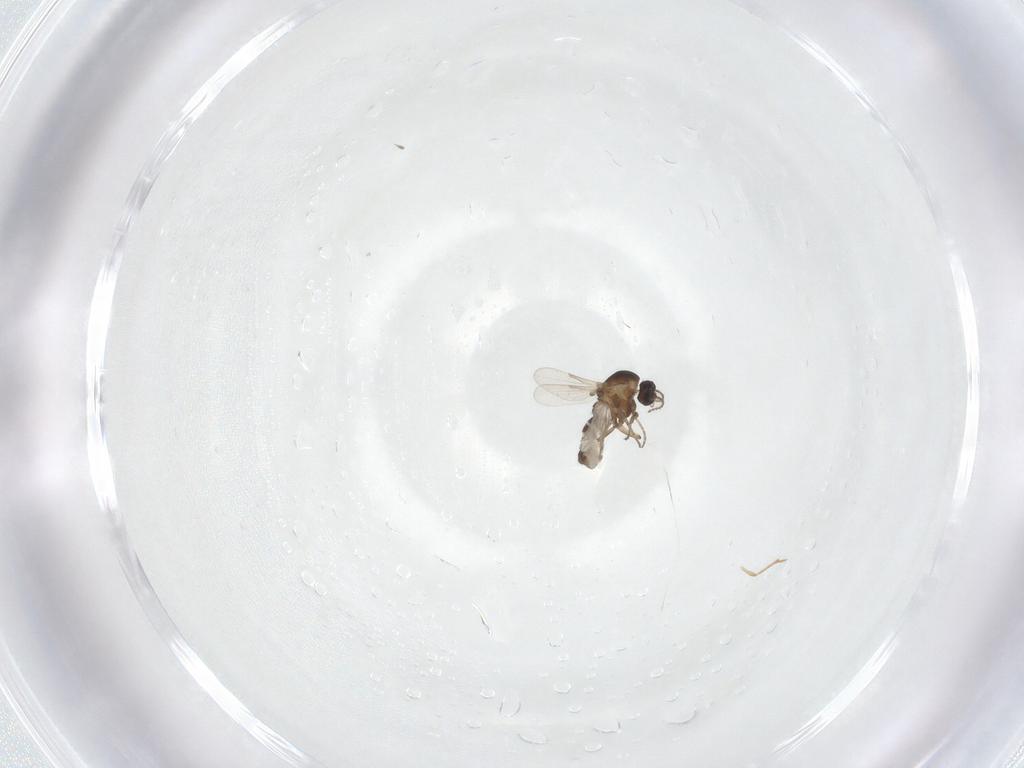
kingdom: Animalia
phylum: Arthropoda
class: Insecta
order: Diptera
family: Ceratopogonidae
